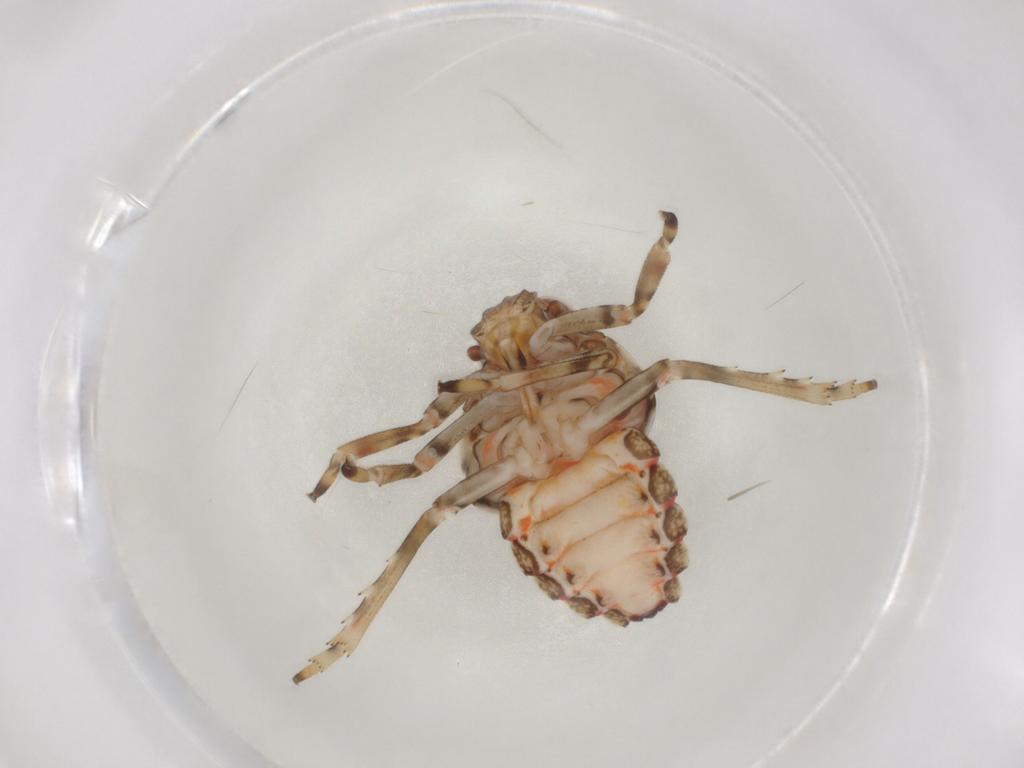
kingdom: Animalia
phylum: Arthropoda
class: Insecta
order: Hemiptera
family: Tropiduchidae
